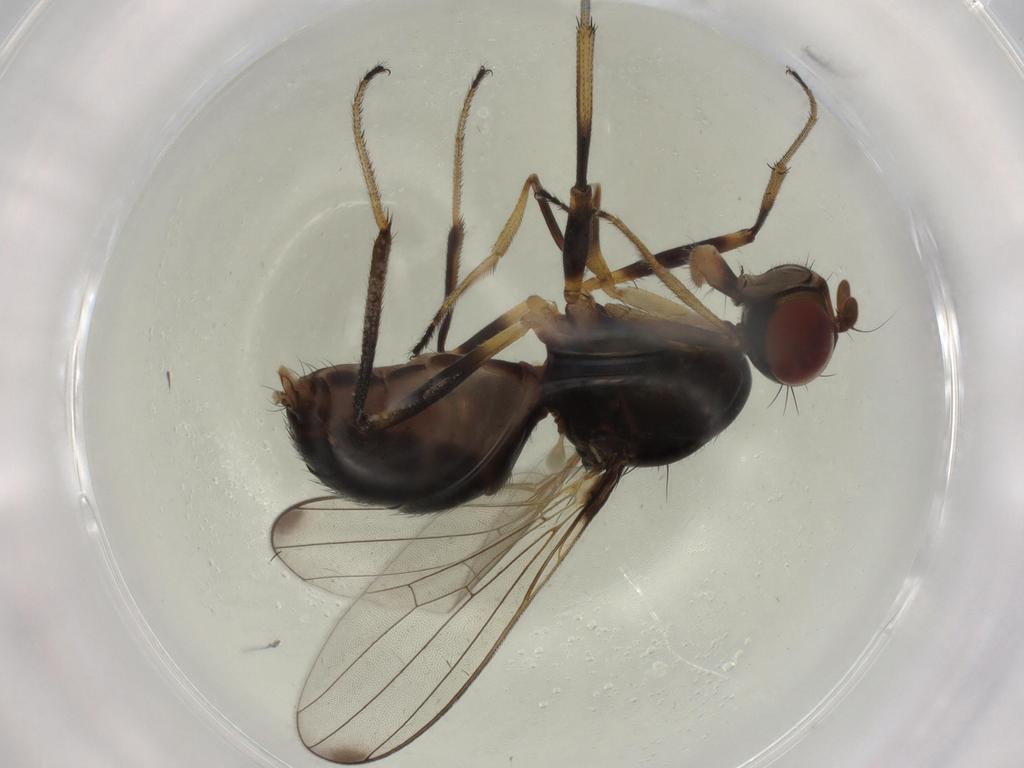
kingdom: Animalia
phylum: Arthropoda
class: Insecta
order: Diptera
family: Sepsidae
